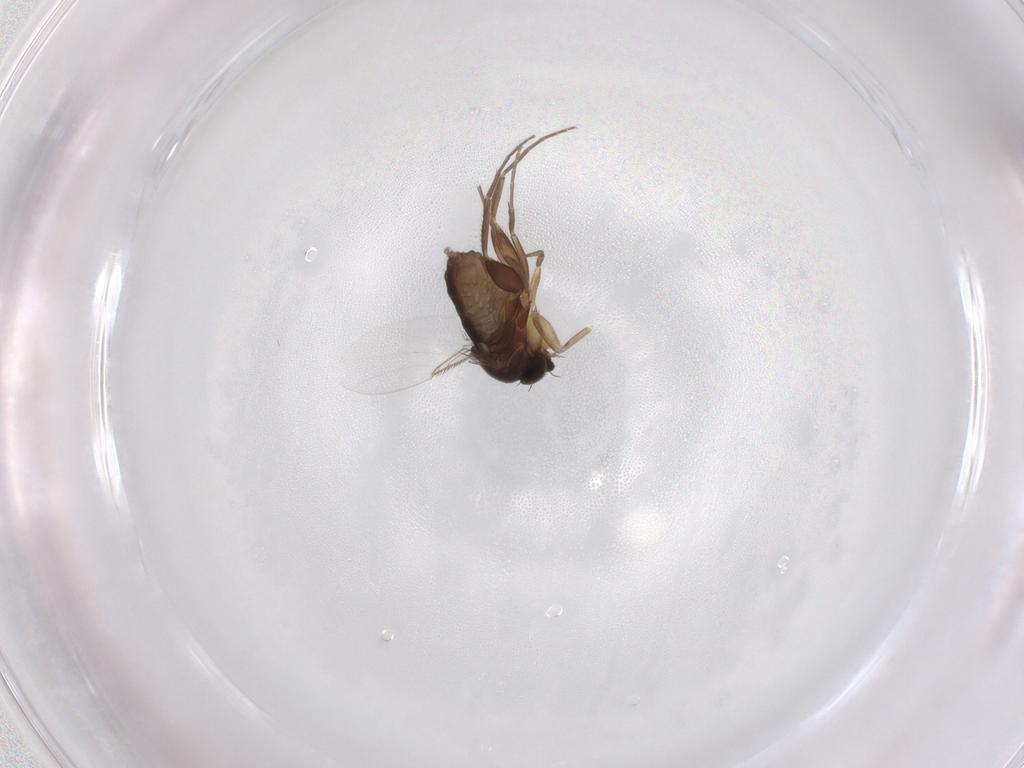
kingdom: Animalia
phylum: Arthropoda
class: Insecta
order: Diptera
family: Phoridae
